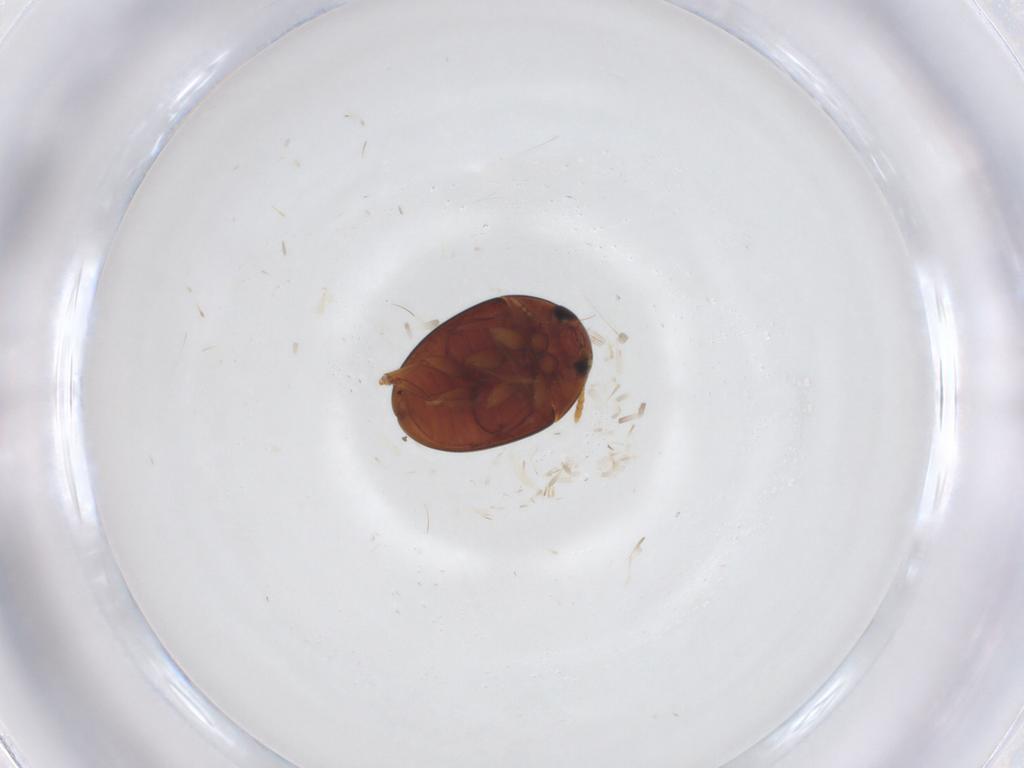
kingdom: Animalia
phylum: Arthropoda
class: Insecta
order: Coleoptera
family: Phalacridae
